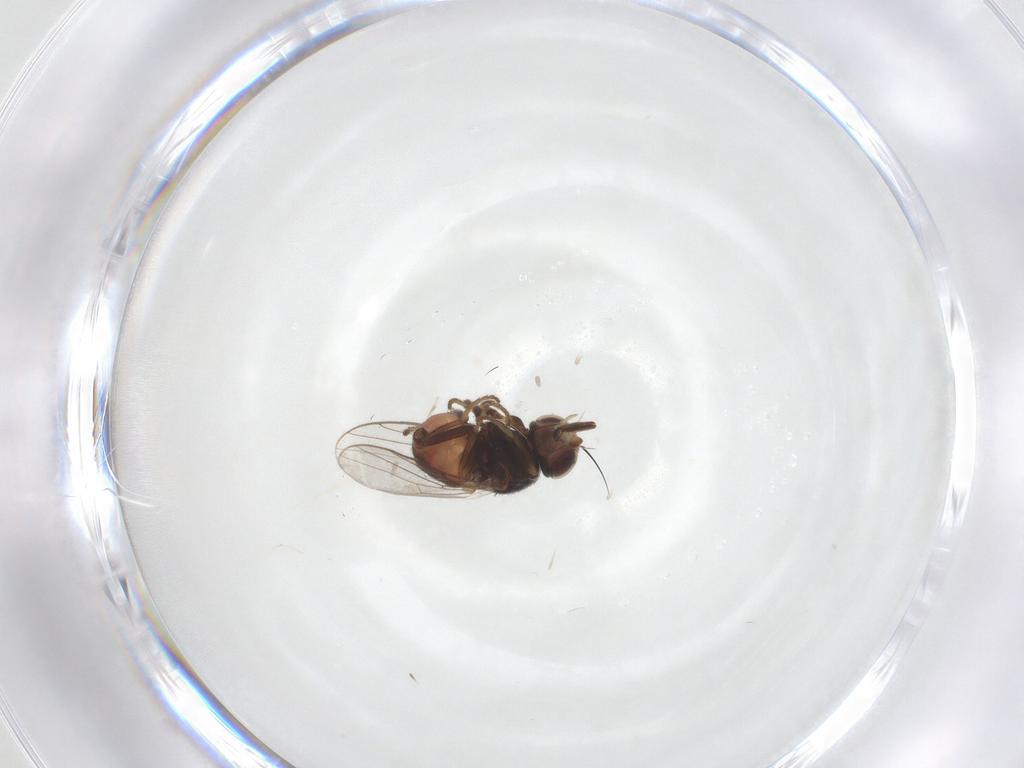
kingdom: Animalia
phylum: Arthropoda
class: Insecta
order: Diptera
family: Chloropidae
